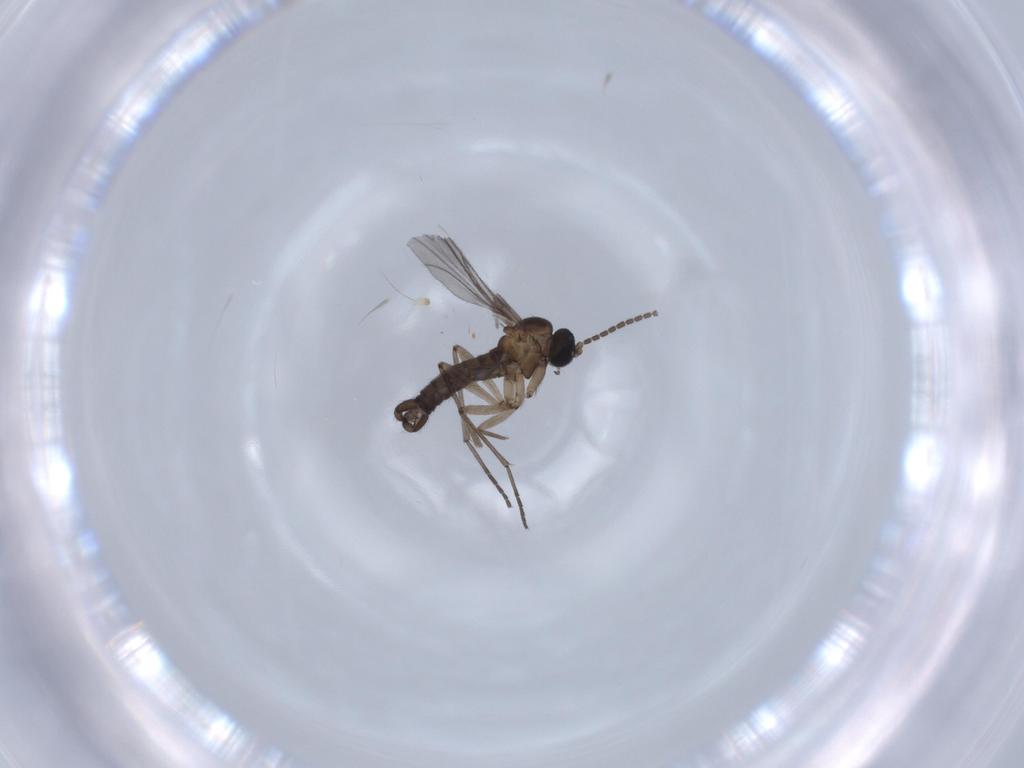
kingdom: Animalia
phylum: Arthropoda
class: Insecta
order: Diptera
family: Sciaridae
